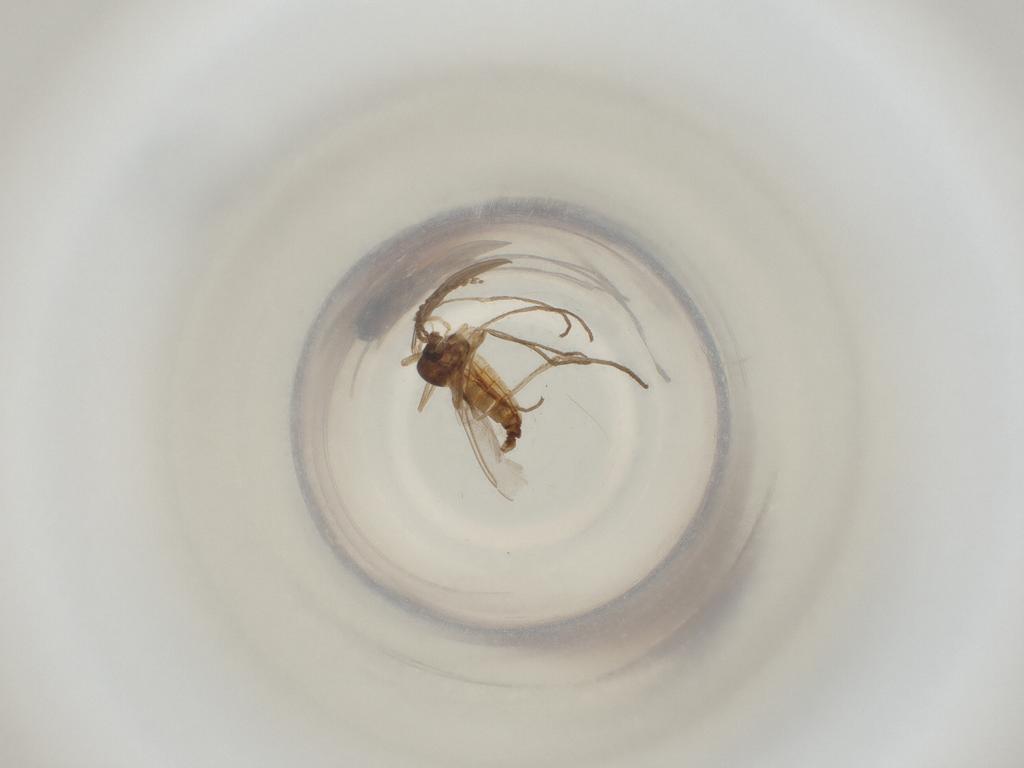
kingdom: Animalia
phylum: Arthropoda
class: Insecta
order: Diptera
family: Cecidomyiidae
